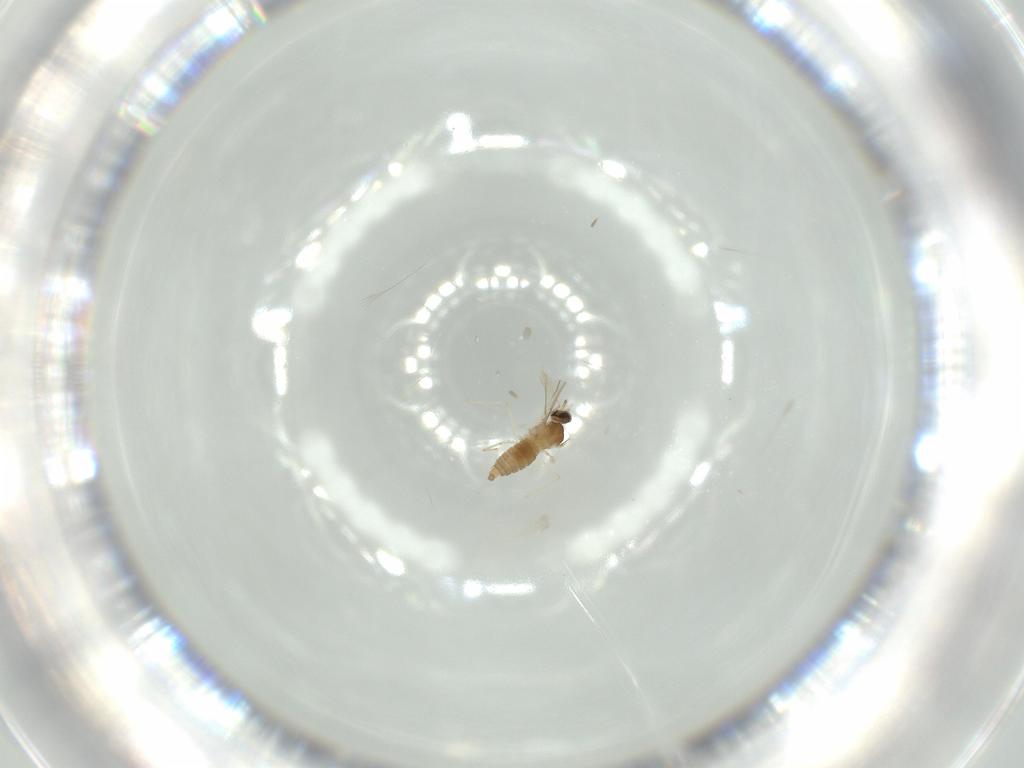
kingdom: Animalia
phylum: Arthropoda
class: Insecta
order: Diptera
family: Cecidomyiidae
